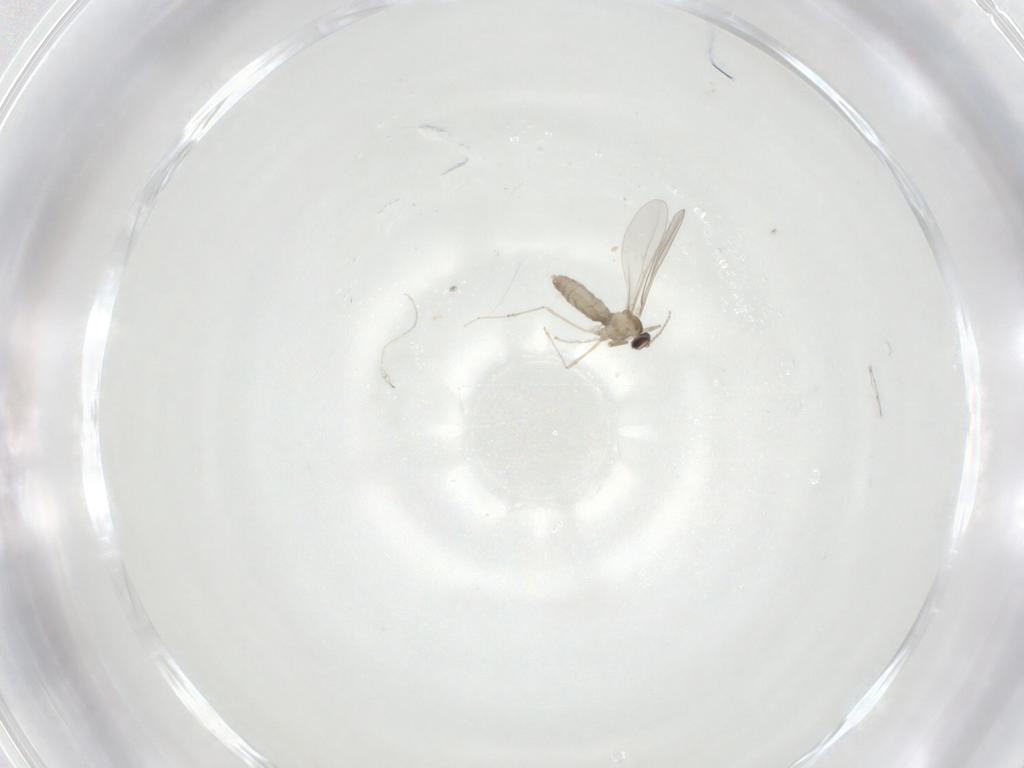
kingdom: Animalia
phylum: Arthropoda
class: Insecta
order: Diptera
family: Cecidomyiidae
